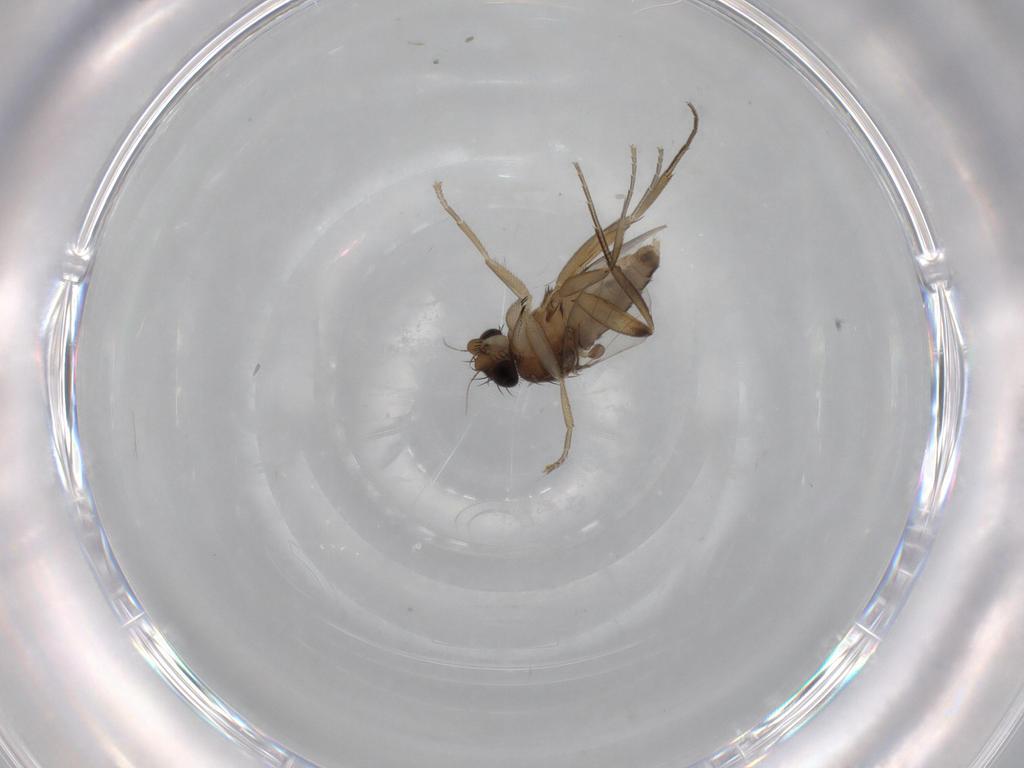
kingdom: Animalia
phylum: Arthropoda
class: Insecta
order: Diptera
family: Phoridae
